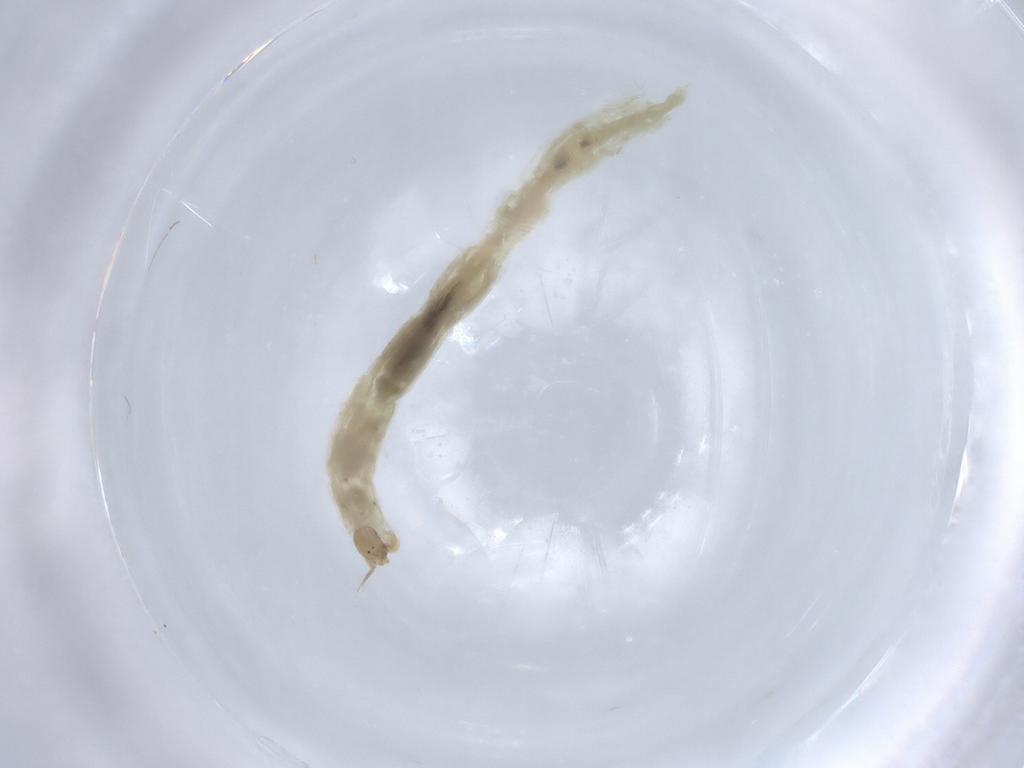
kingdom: Animalia
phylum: Arthropoda
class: Insecta
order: Diptera
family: Chironomidae
